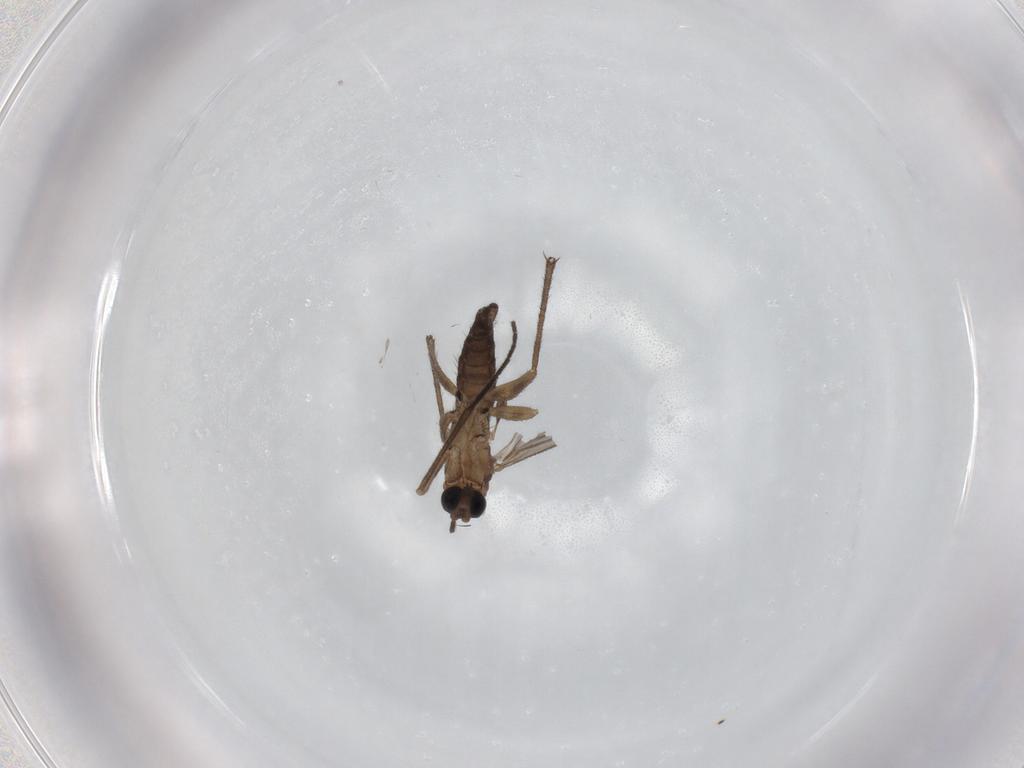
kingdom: Animalia
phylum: Arthropoda
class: Insecta
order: Diptera
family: Sciaridae
